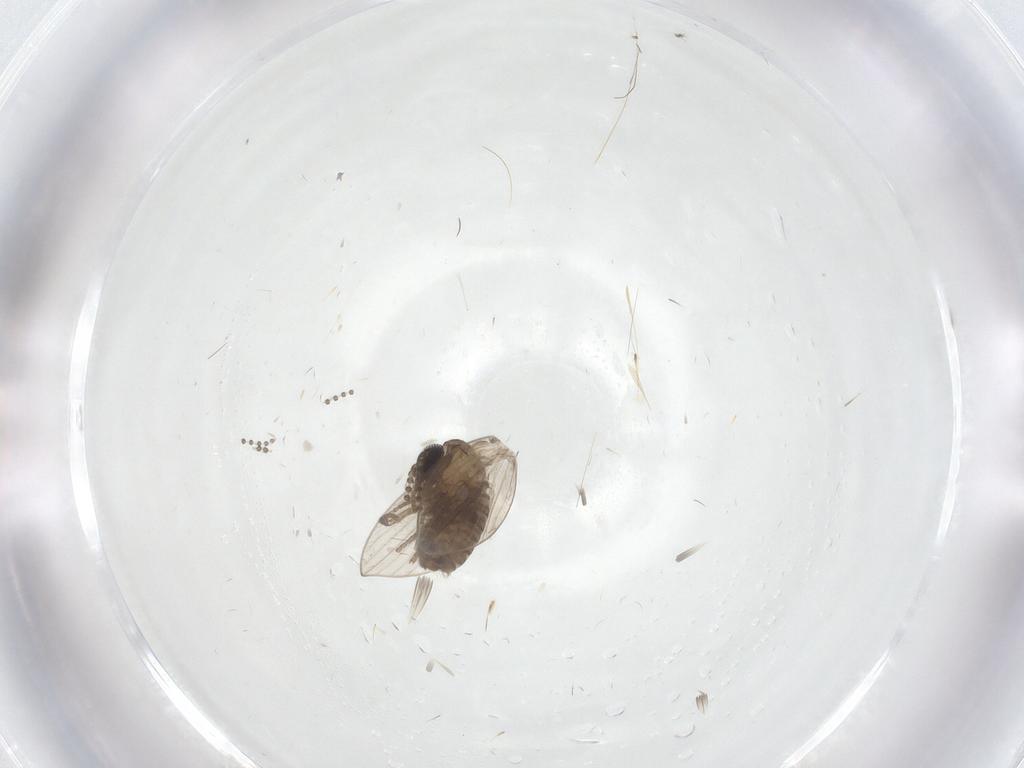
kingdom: Animalia
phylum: Arthropoda
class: Insecta
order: Diptera
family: Psychodidae
